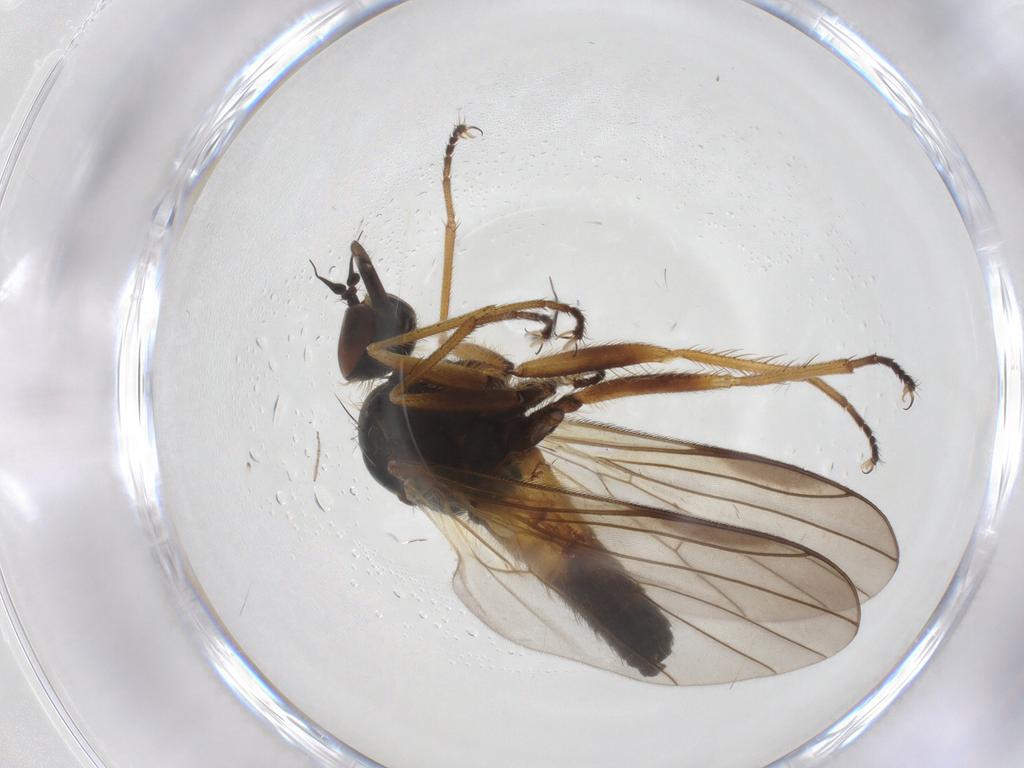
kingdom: Animalia
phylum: Arthropoda
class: Insecta
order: Diptera
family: Empididae
